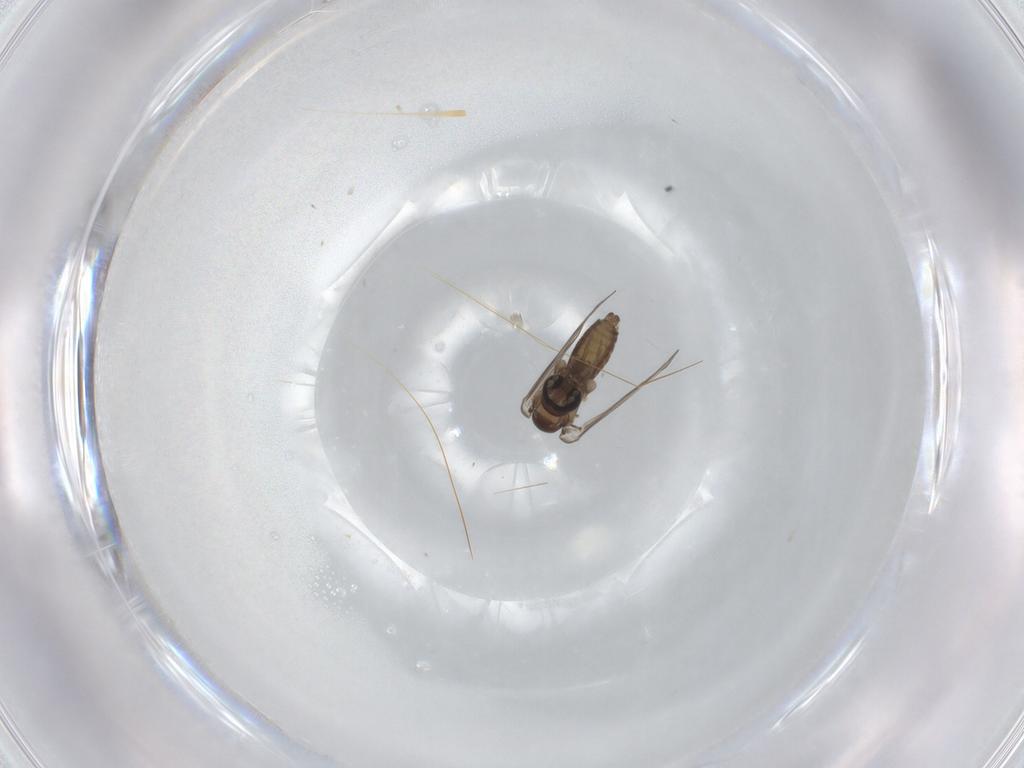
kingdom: Animalia
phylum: Arthropoda
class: Insecta
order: Diptera
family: Psychodidae
